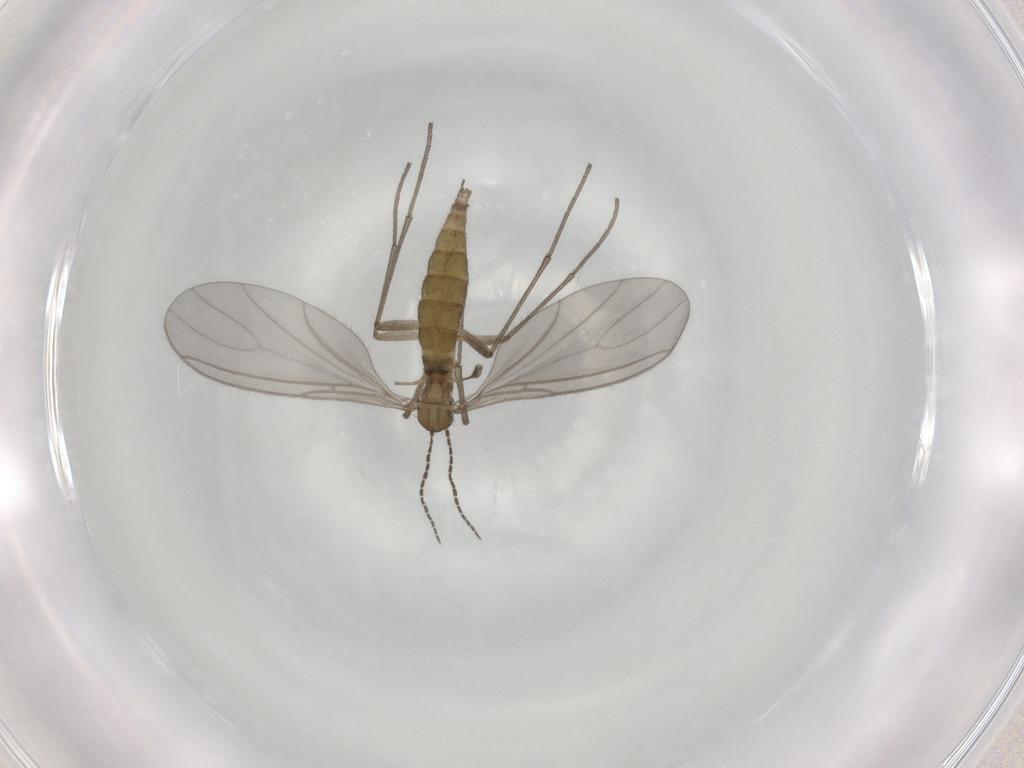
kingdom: Animalia
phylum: Arthropoda
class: Insecta
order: Diptera
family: Sciaridae
